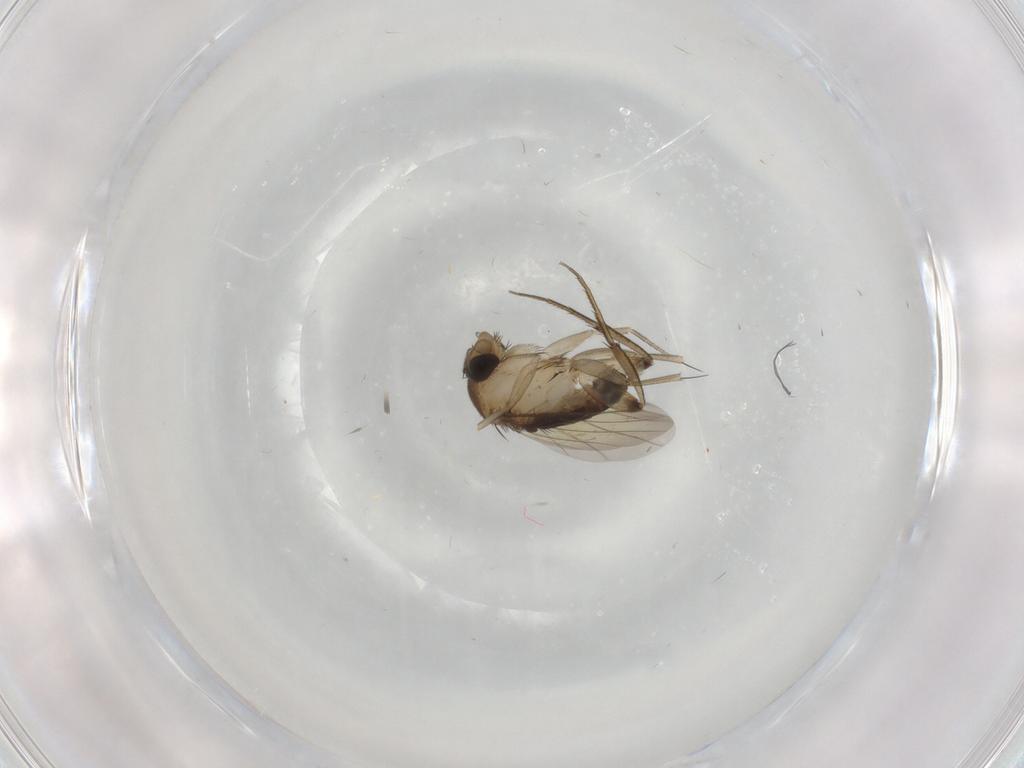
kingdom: Animalia
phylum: Arthropoda
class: Insecta
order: Diptera
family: Phoridae
